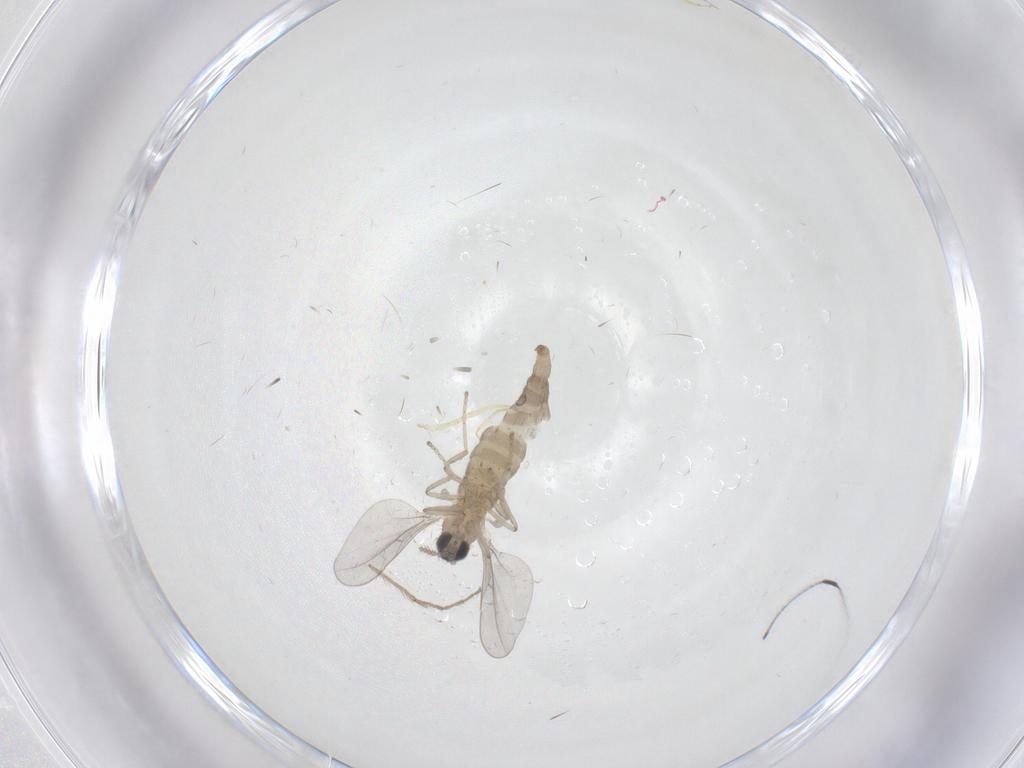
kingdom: Animalia
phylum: Arthropoda
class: Insecta
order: Diptera
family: Cecidomyiidae
